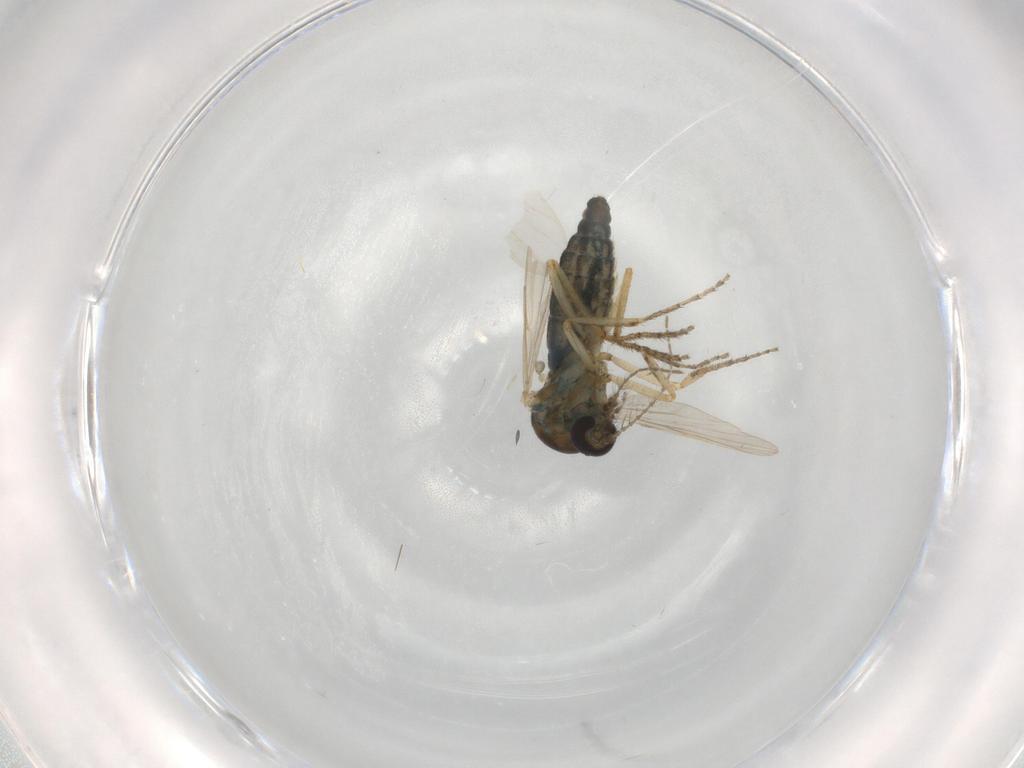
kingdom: Animalia
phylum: Arthropoda
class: Insecta
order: Diptera
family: Ceratopogonidae
